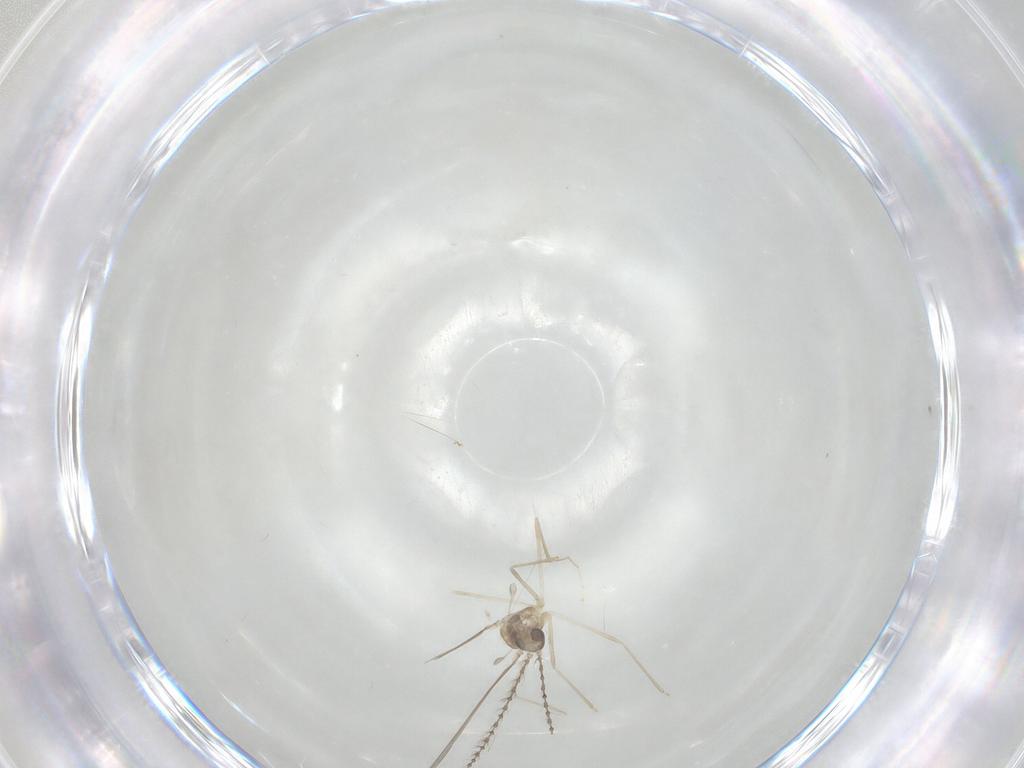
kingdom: Animalia
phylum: Arthropoda
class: Insecta
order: Diptera
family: Cecidomyiidae
